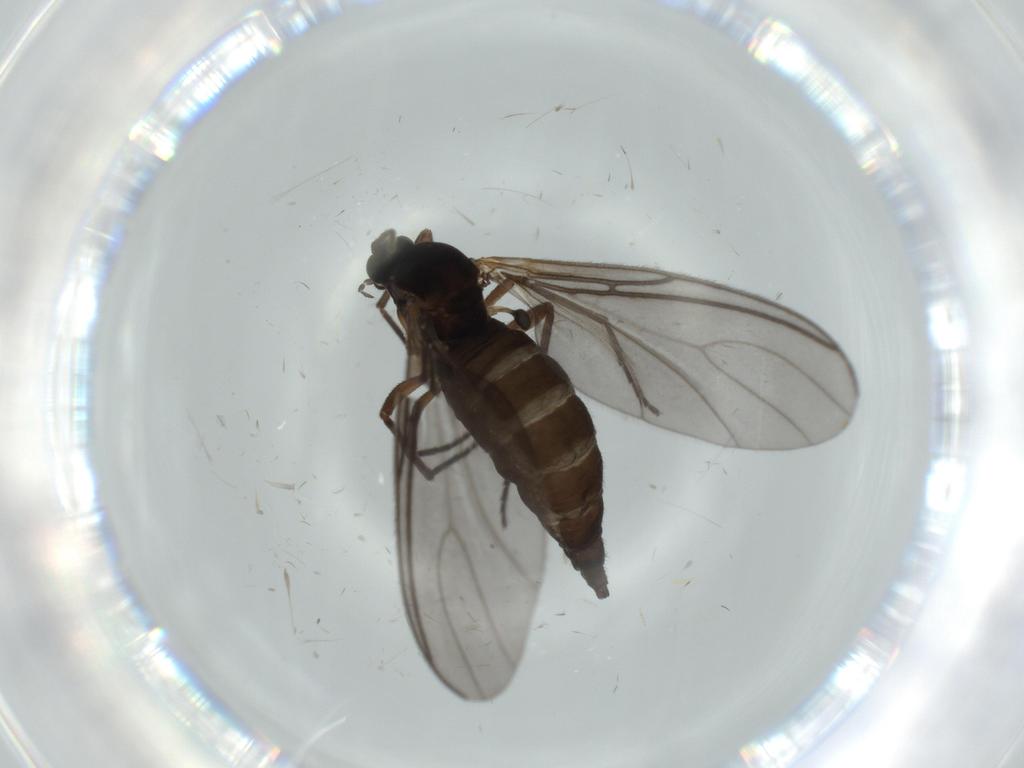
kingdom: Animalia
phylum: Arthropoda
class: Insecta
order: Diptera
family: Sciaridae
